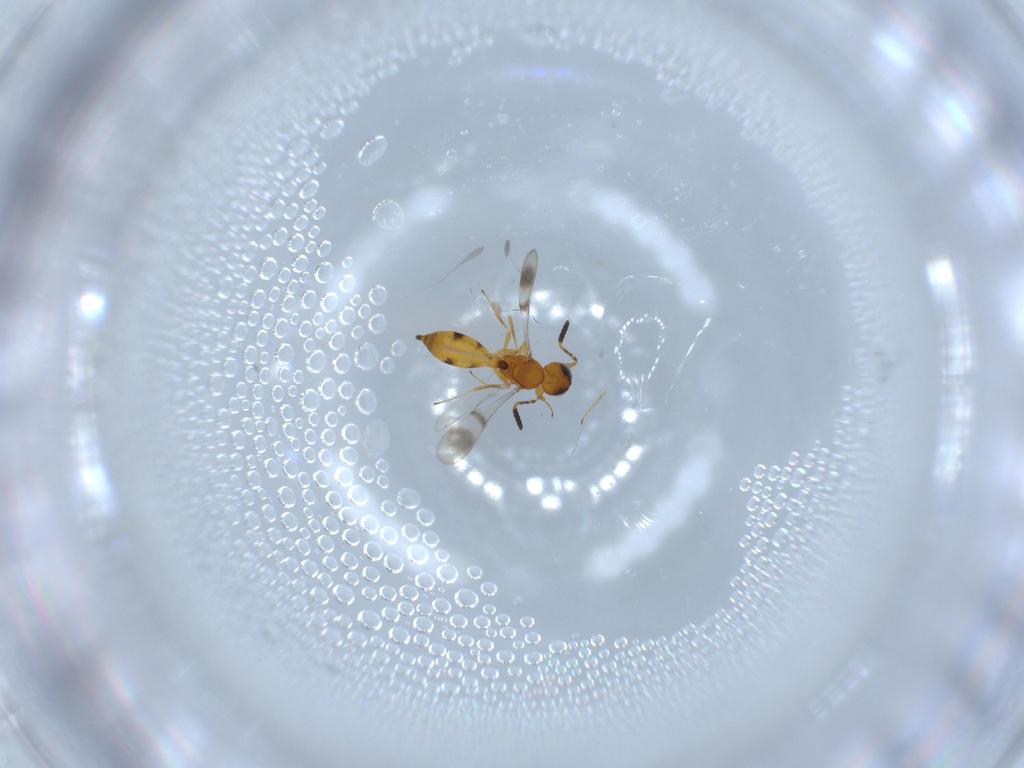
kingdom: Animalia
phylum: Arthropoda
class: Insecta
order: Hymenoptera
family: Scelionidae
